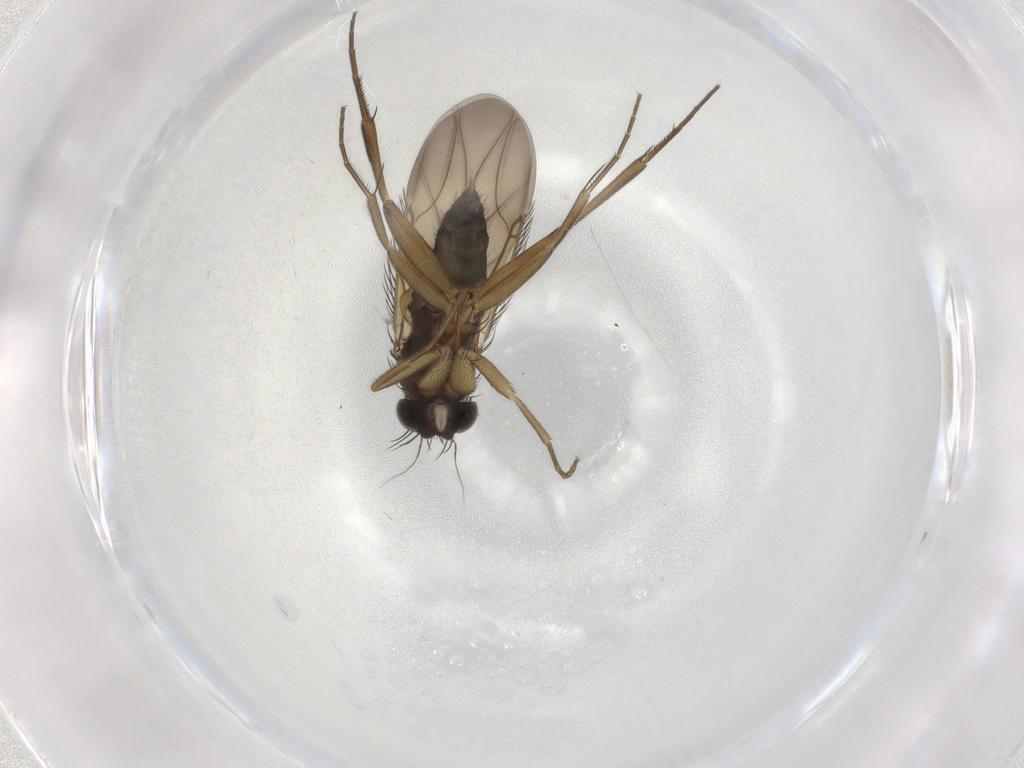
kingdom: Animalia
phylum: Arthropoda
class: Insecta
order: Diptera
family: Phoridae
